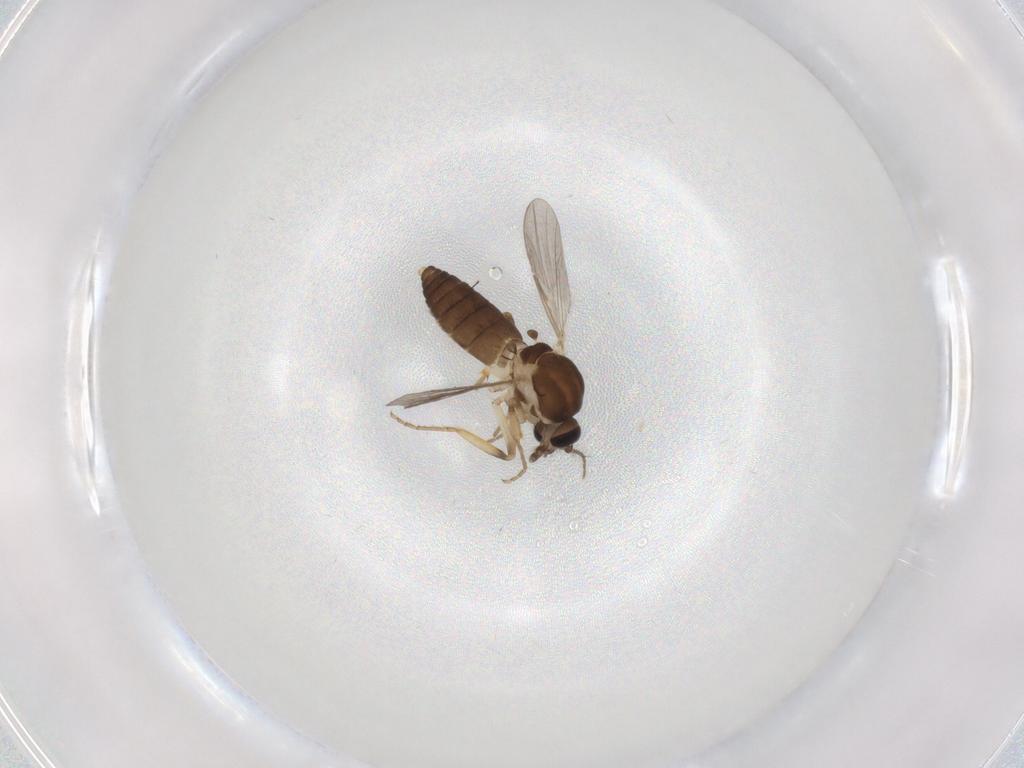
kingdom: Animalia
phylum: Arthropoda
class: Insecta
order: Diptera
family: Ceratopogonidae
